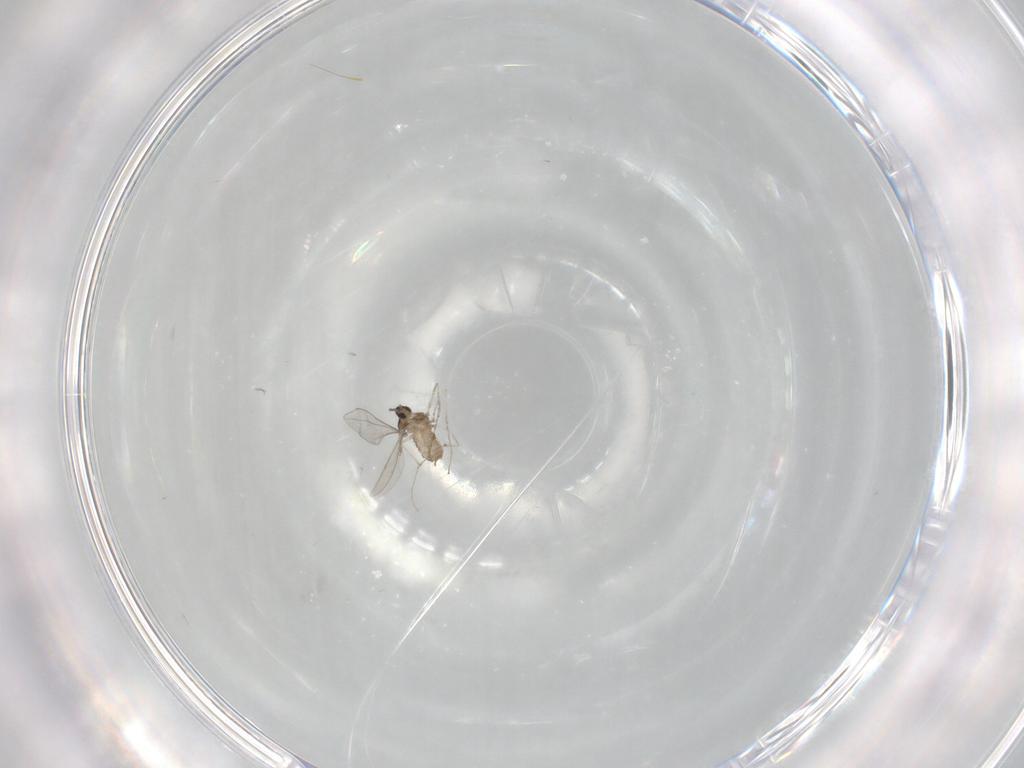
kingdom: Animalia
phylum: Arthropoda
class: Insecta
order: Diptera
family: Cecidomyiidae
